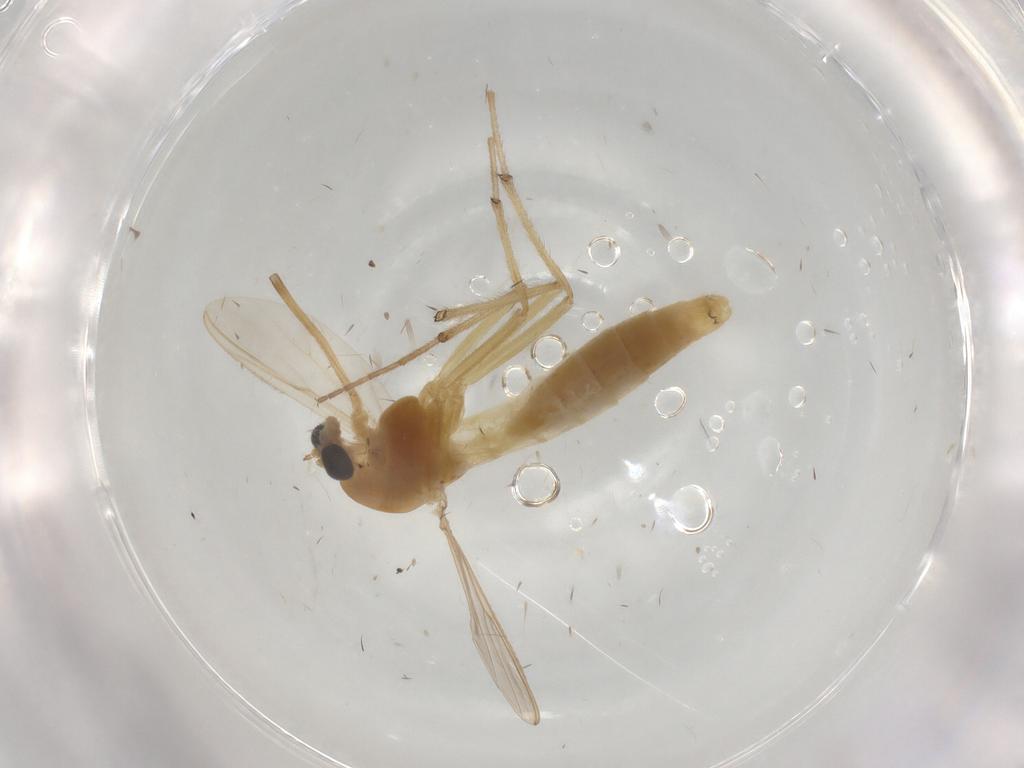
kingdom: Animalia
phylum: Arthropoda
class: Insecta
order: Diptera
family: Chironomidae
